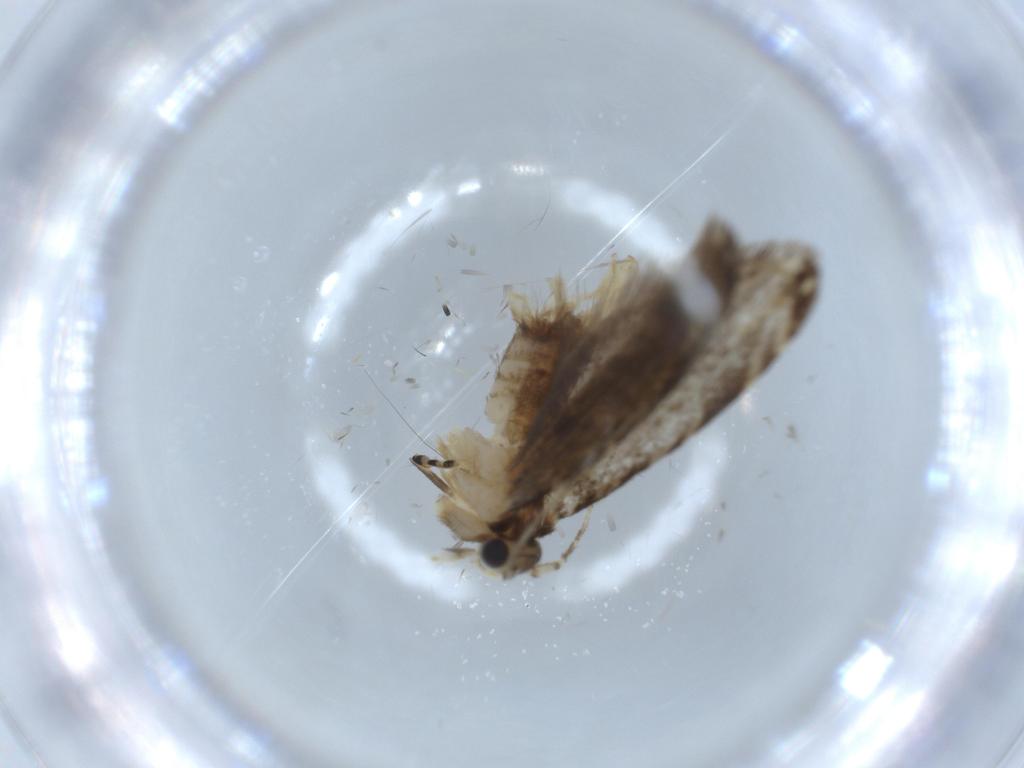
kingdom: Animalia
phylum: Arthropoda
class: Insecta
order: Lepidoptera
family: Tineidae
